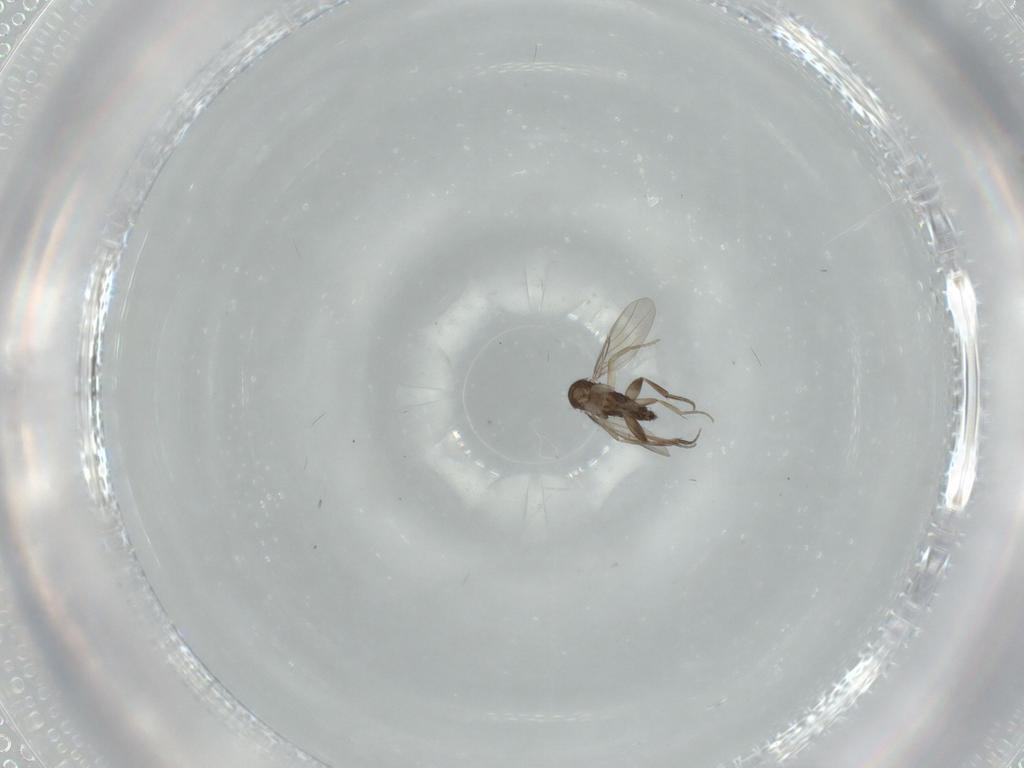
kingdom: Animalia
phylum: Arthropoda
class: Insecta
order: Diptera
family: Phoridae
